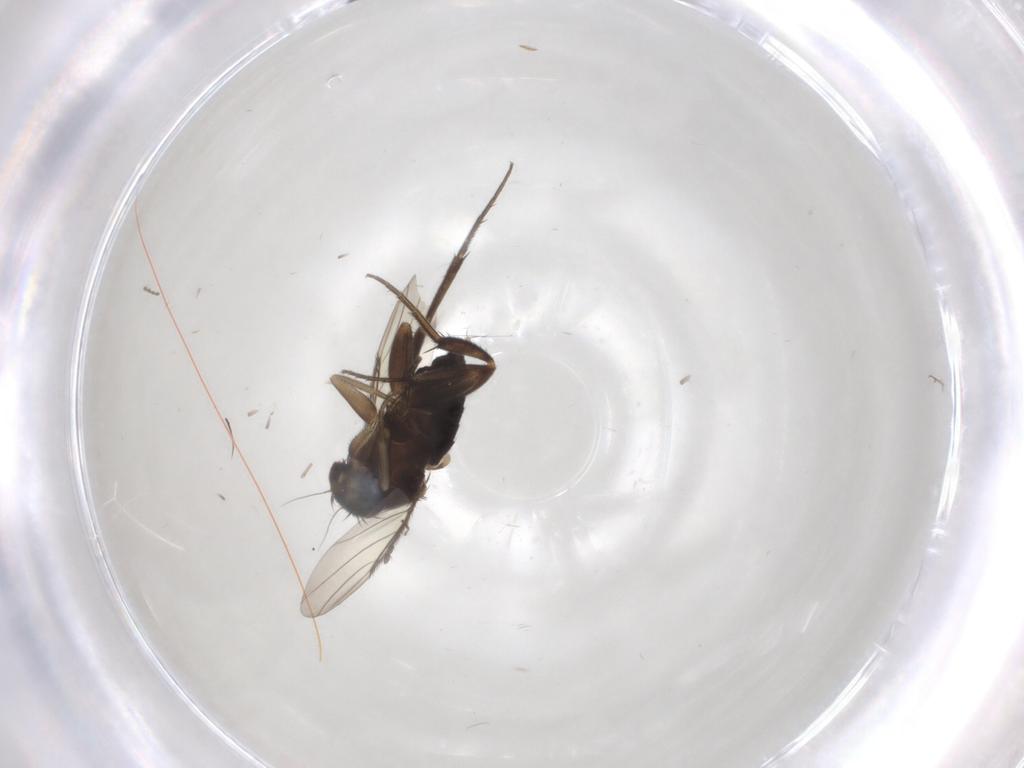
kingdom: Animalia
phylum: Arthropoda
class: Insecta
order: Diptera
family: Phoridae
